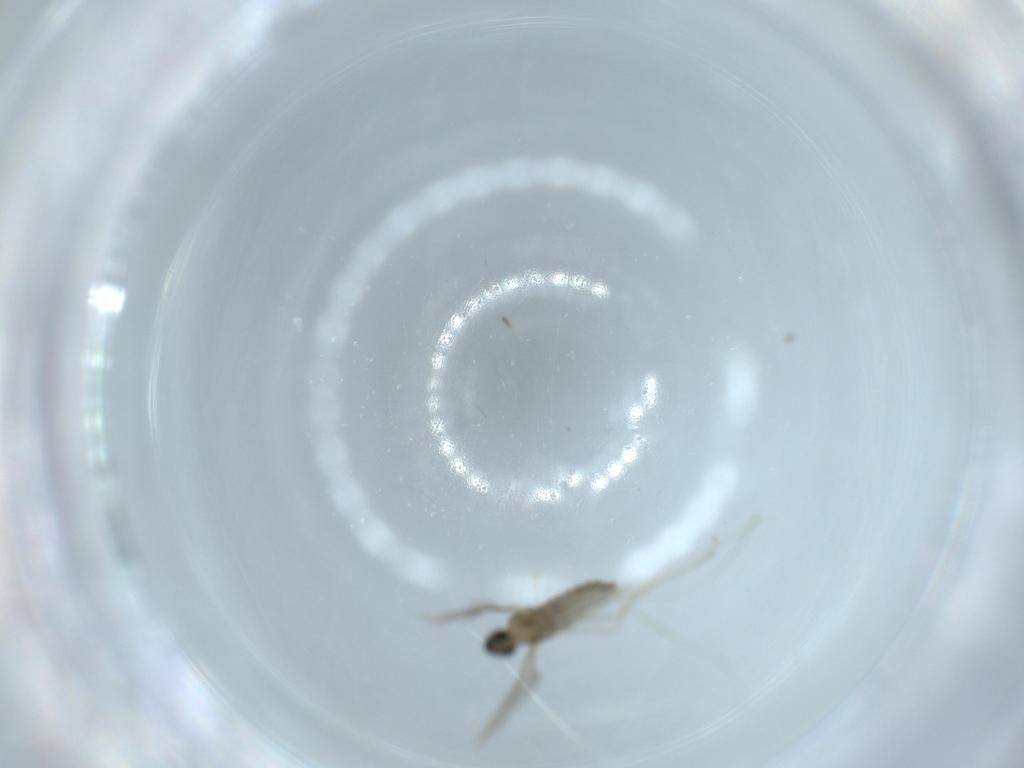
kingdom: Animalia
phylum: Arthropoda
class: Insecta
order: Diptera
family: Cecidomyiidae
